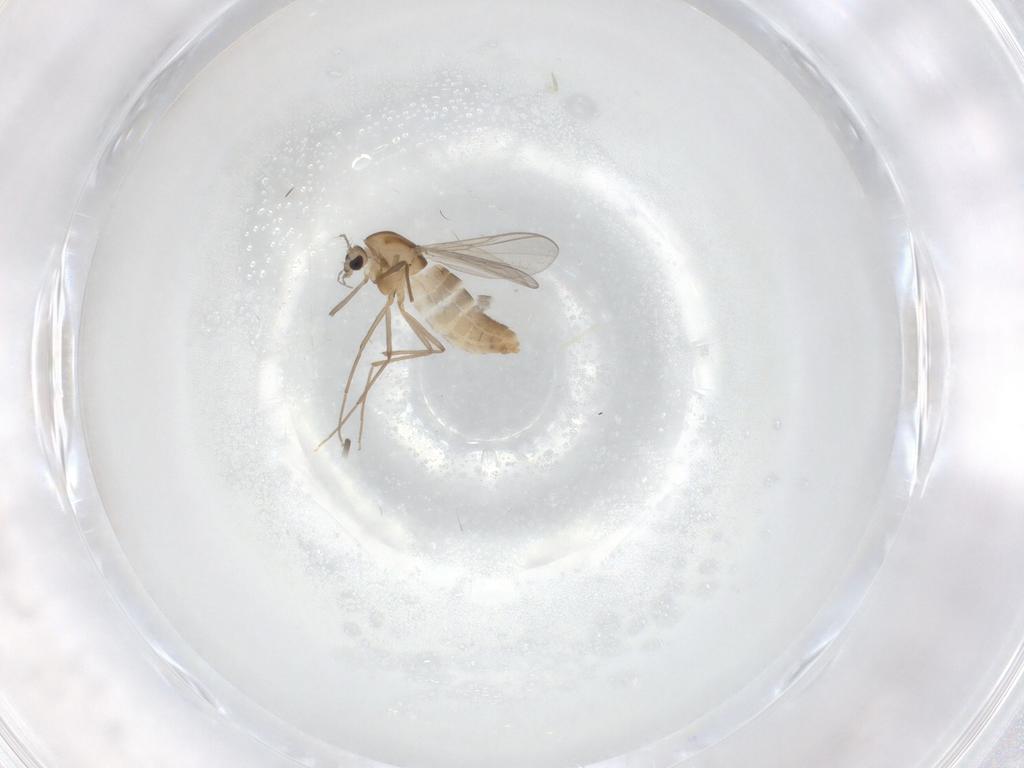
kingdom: Animalia
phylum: Arthropoda
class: Insecta
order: Diptera
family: Chironomidae
